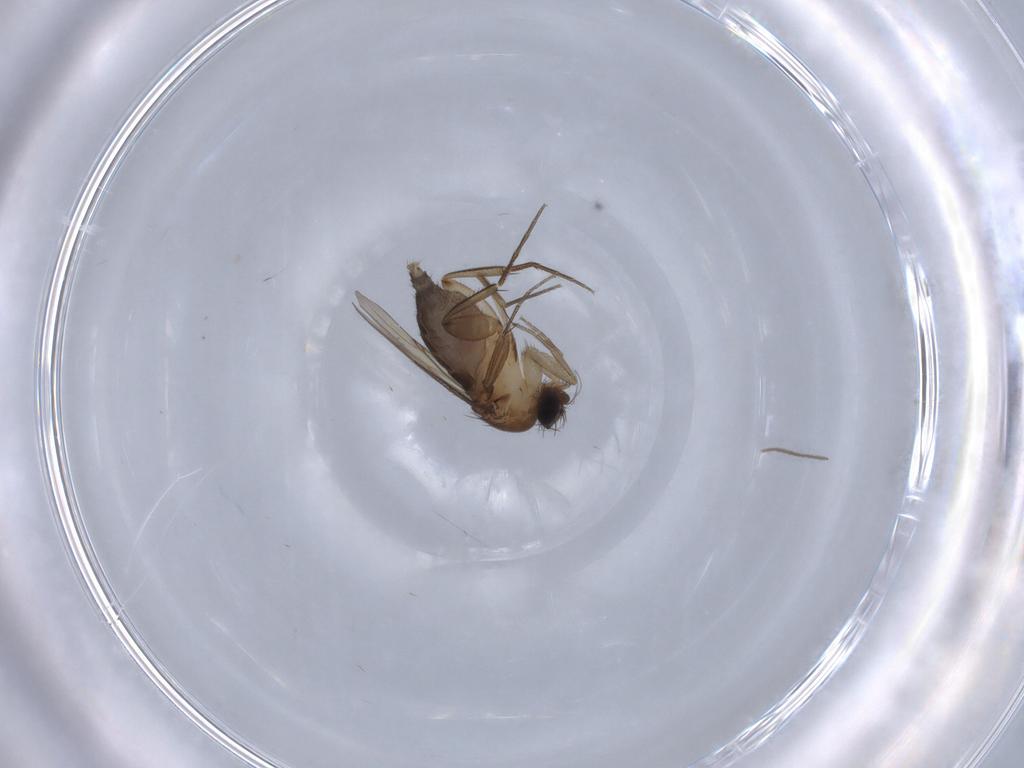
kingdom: Animalia
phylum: Arthropoda
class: Insecta
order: Diptera
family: Phoridae
